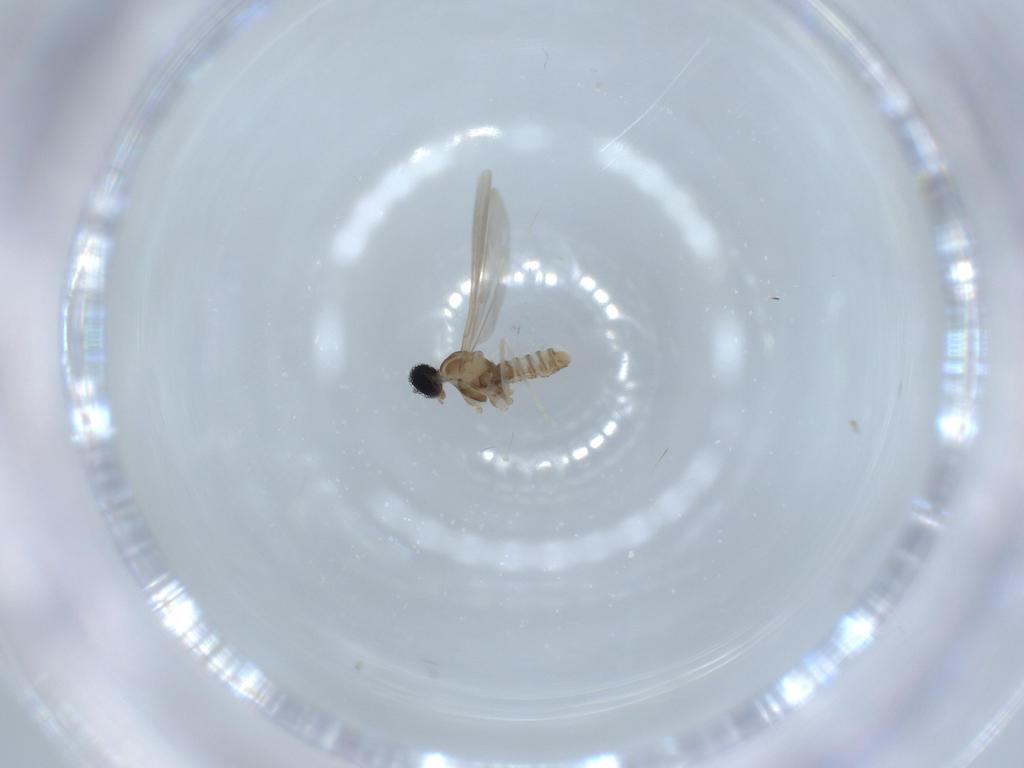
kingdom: Animalia
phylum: Arthropoda
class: Insecta
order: Diptera
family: Cecidomyiidae
